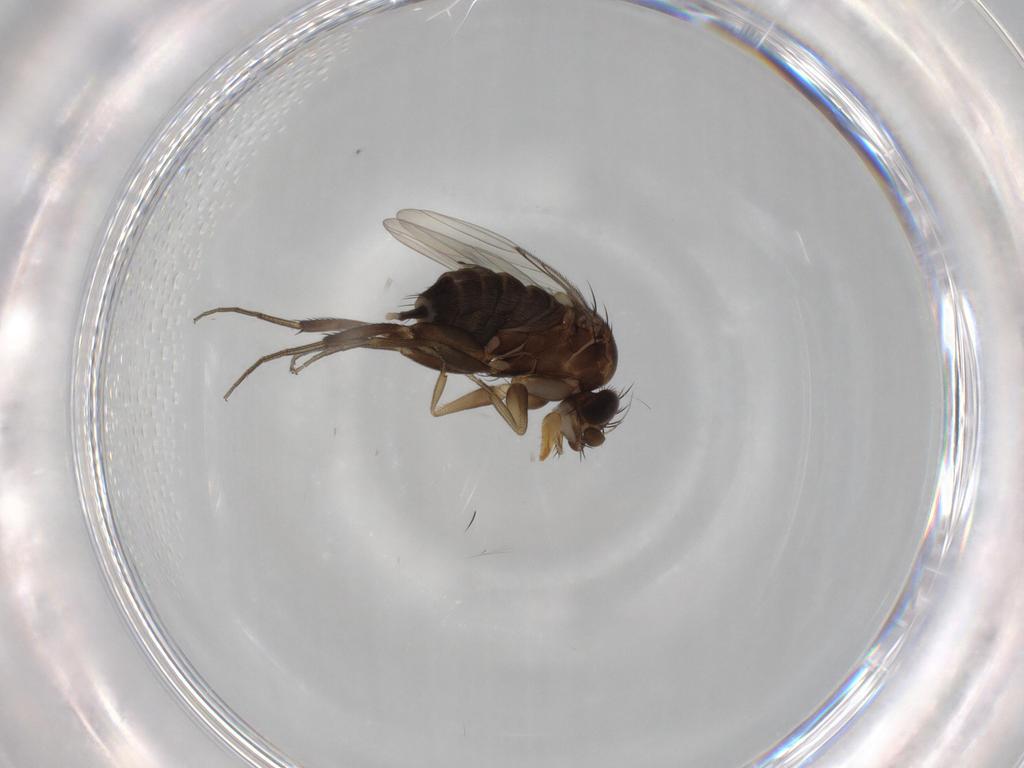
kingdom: Animalia
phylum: Arthropoda
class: Insecta
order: Diptera
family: Phoridae
